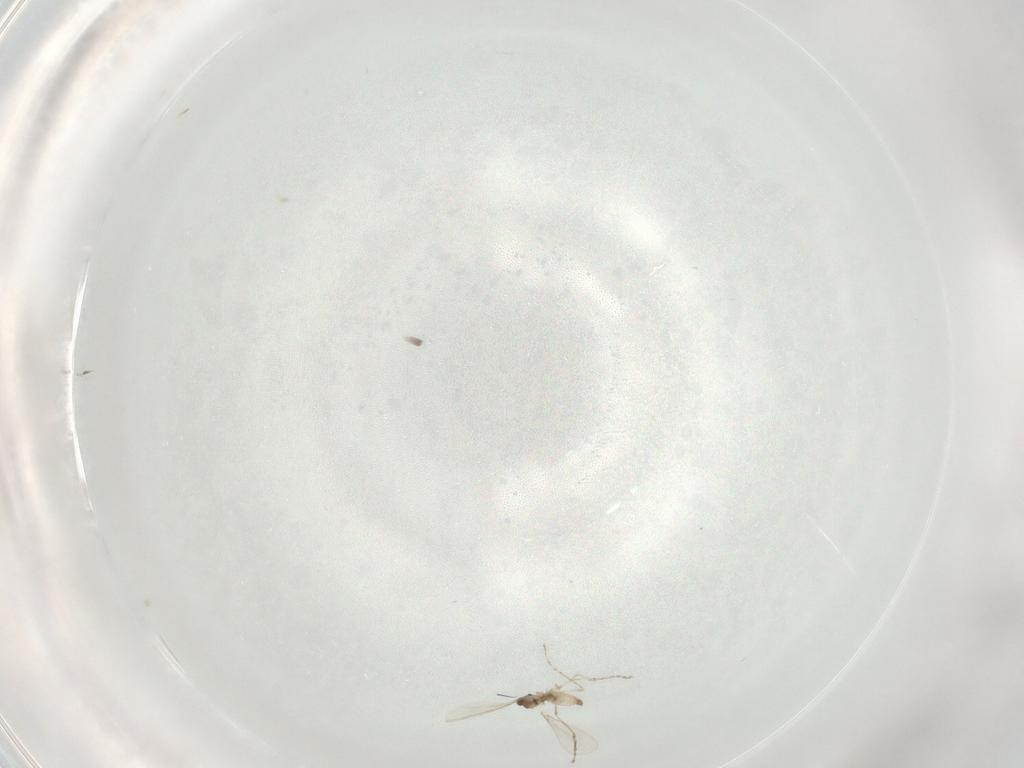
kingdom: Animalia
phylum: Arthropoda
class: Insecta
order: Diptera
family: Cecidomyiidae
